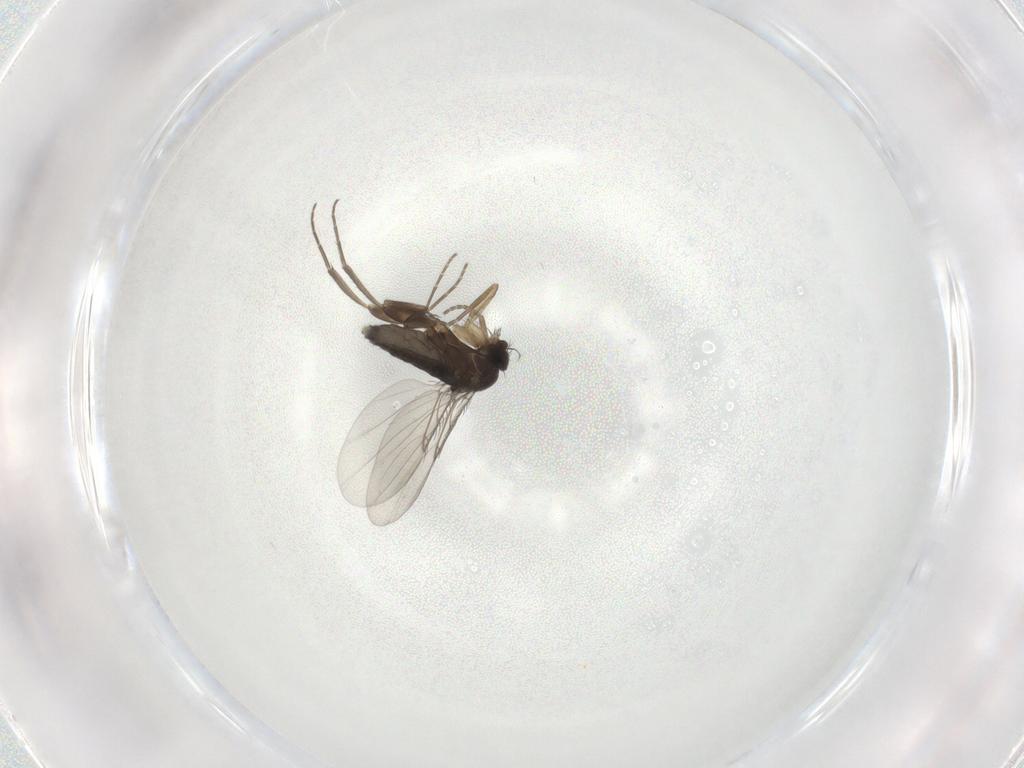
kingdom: Animalia
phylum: Arthropoda
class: Insecta
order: Diptera
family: Phoridae
